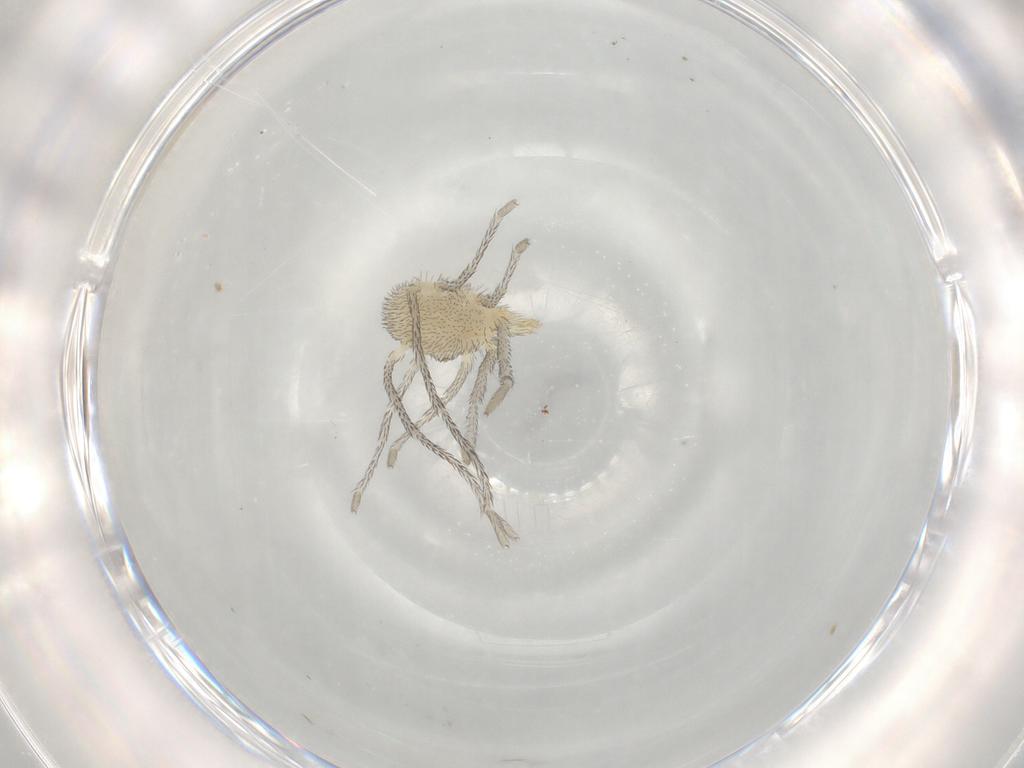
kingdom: Animalia
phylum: Arthropoda
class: Arachnida
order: Trombidiformes
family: Erythraeidae
